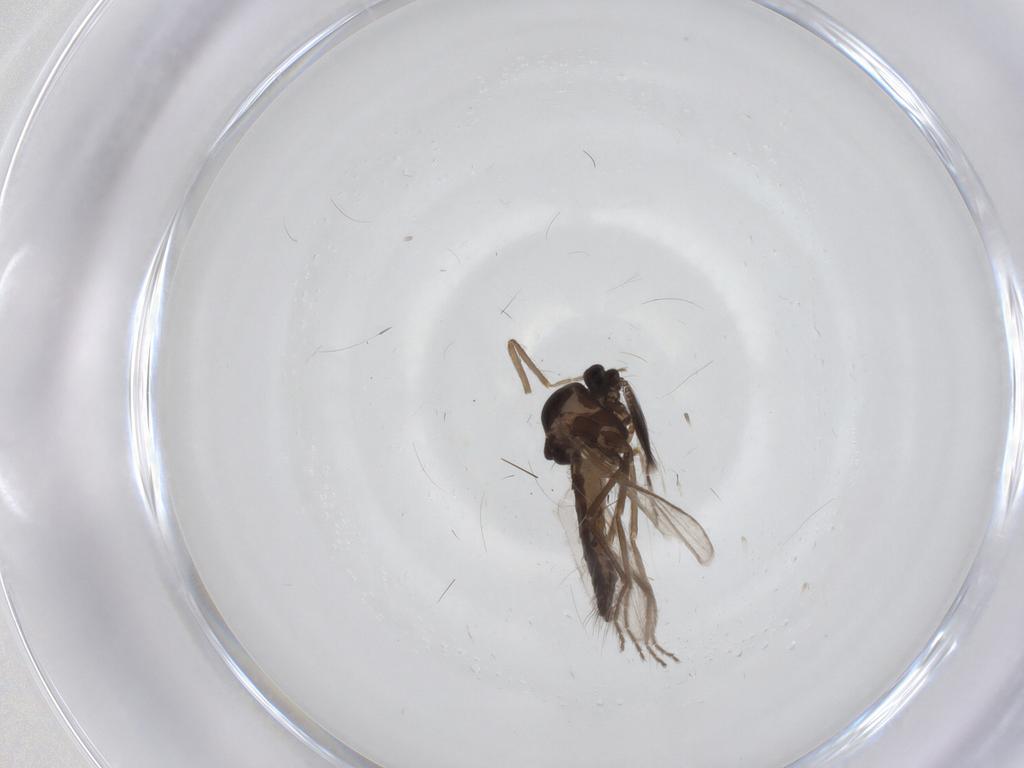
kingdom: Animalia
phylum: Arthropoda
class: Insecta
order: Diptera
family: Ceratopogonidae
